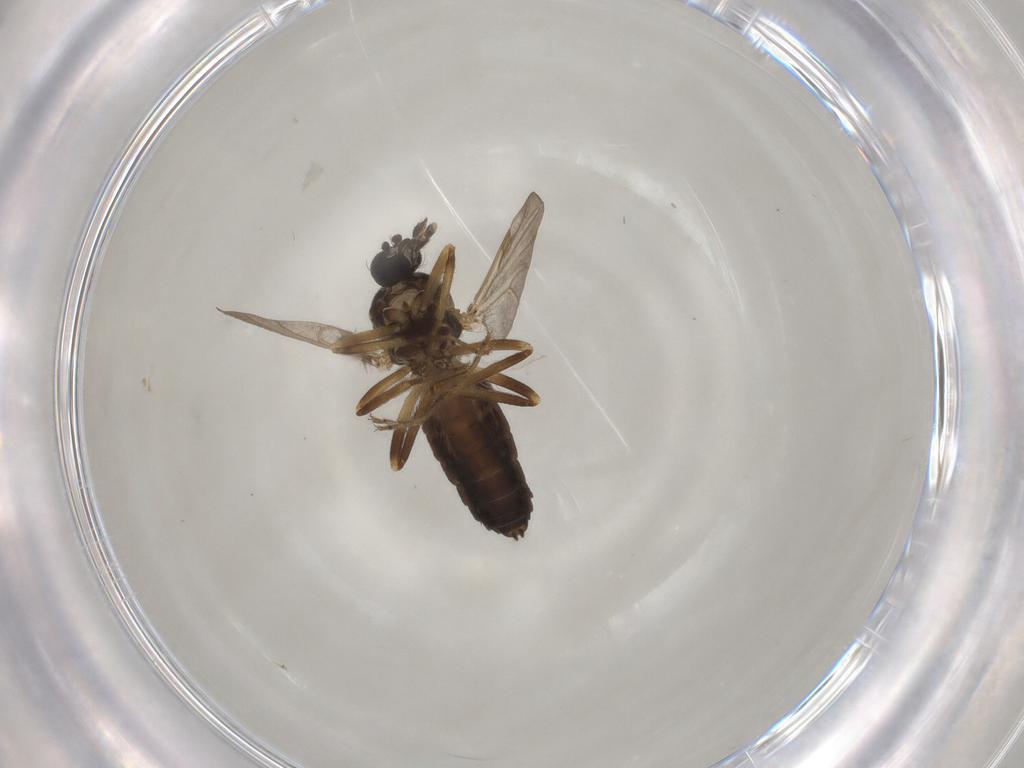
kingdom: Animalia
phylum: Arthropoda
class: Insecta
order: Diptera
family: Ceratopogonidae
